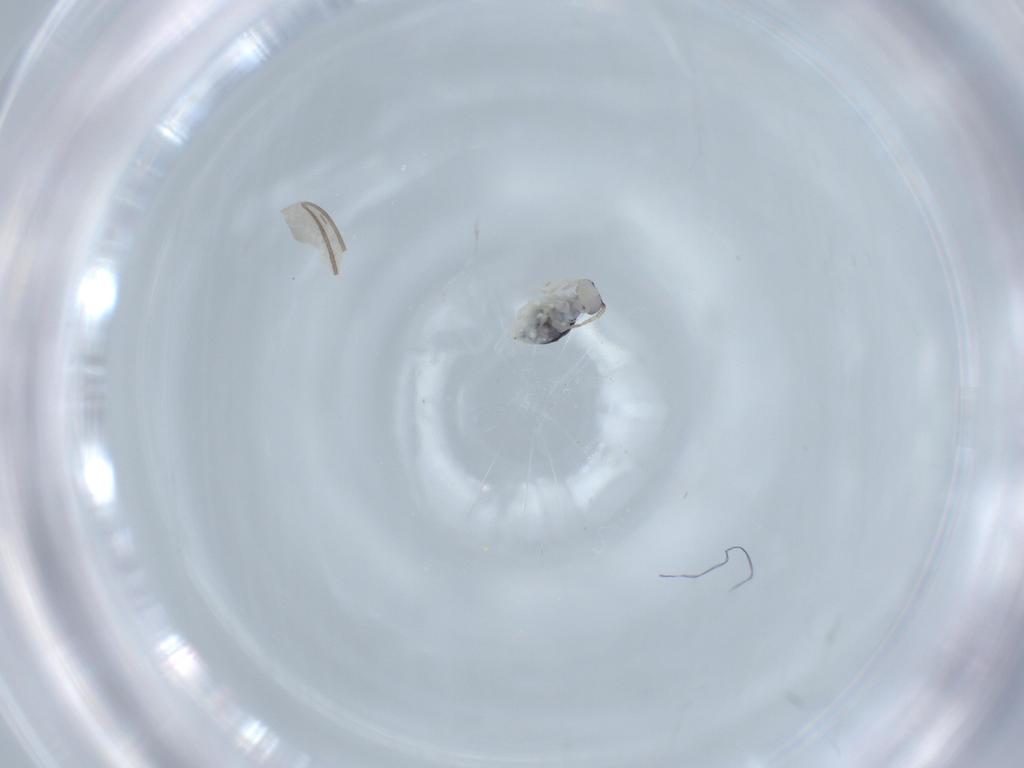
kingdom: Animalia
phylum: Arthropoda
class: Collembola
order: Symphypleona
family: Bourletiellidae
